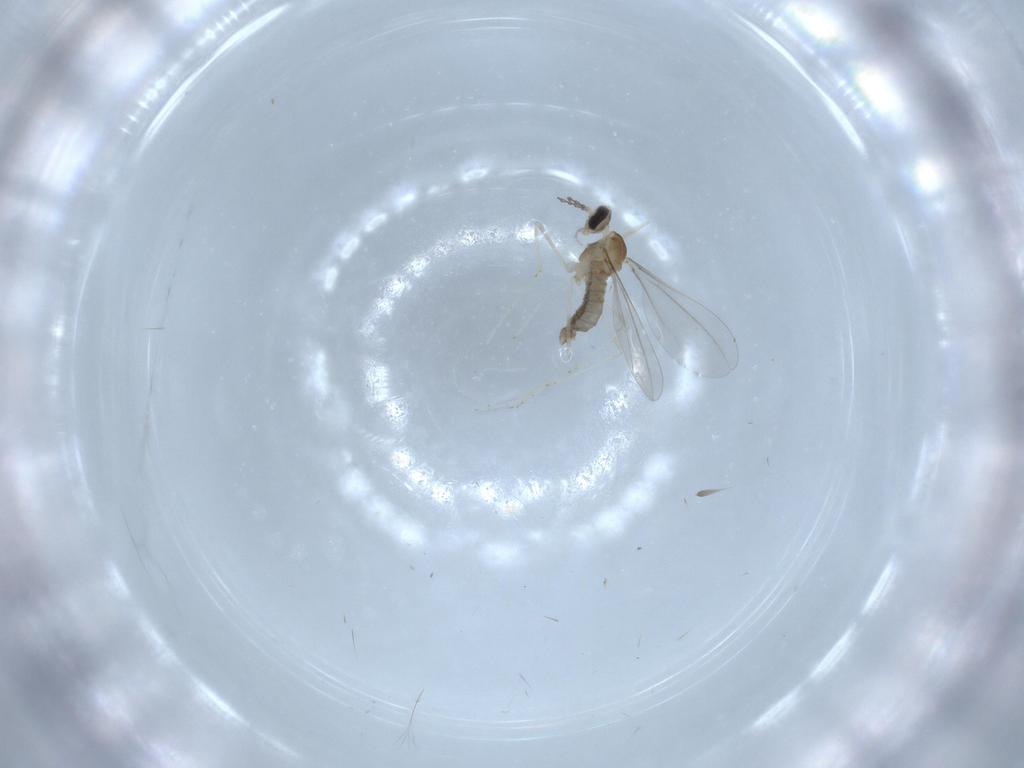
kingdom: Animalia
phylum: Arthropoda
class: Insecta
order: Diptera
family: Cecidomyiidae
